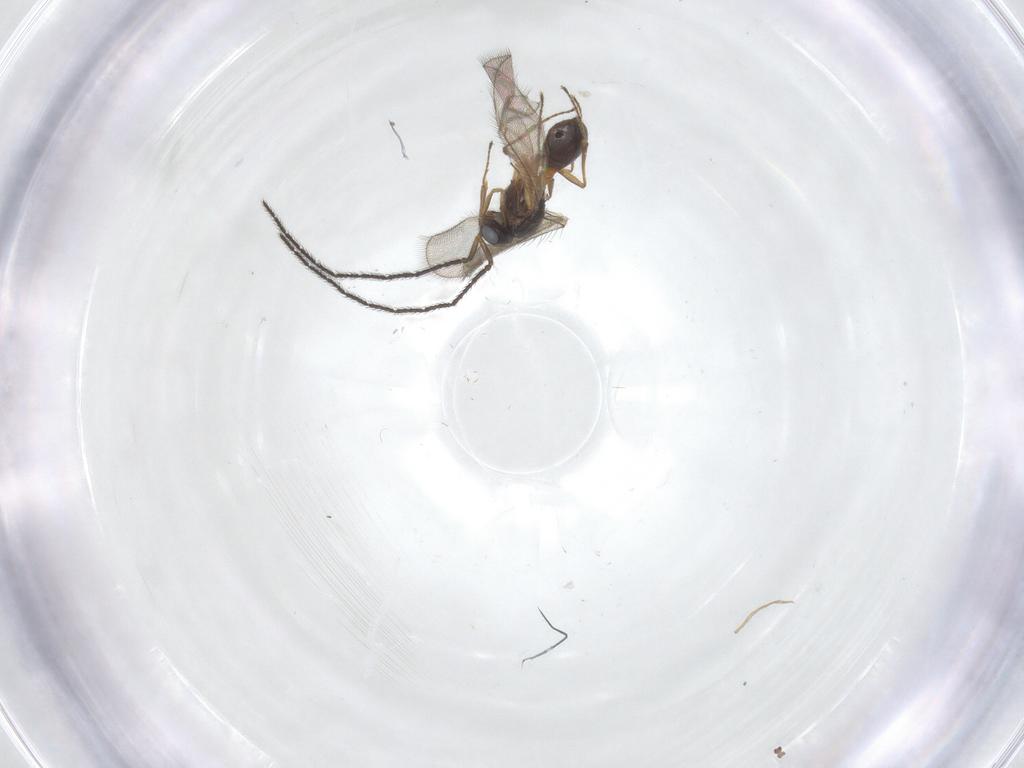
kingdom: Animalia
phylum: Arthropoda
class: Insecta
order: Hymenoptera
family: Scelionidae
